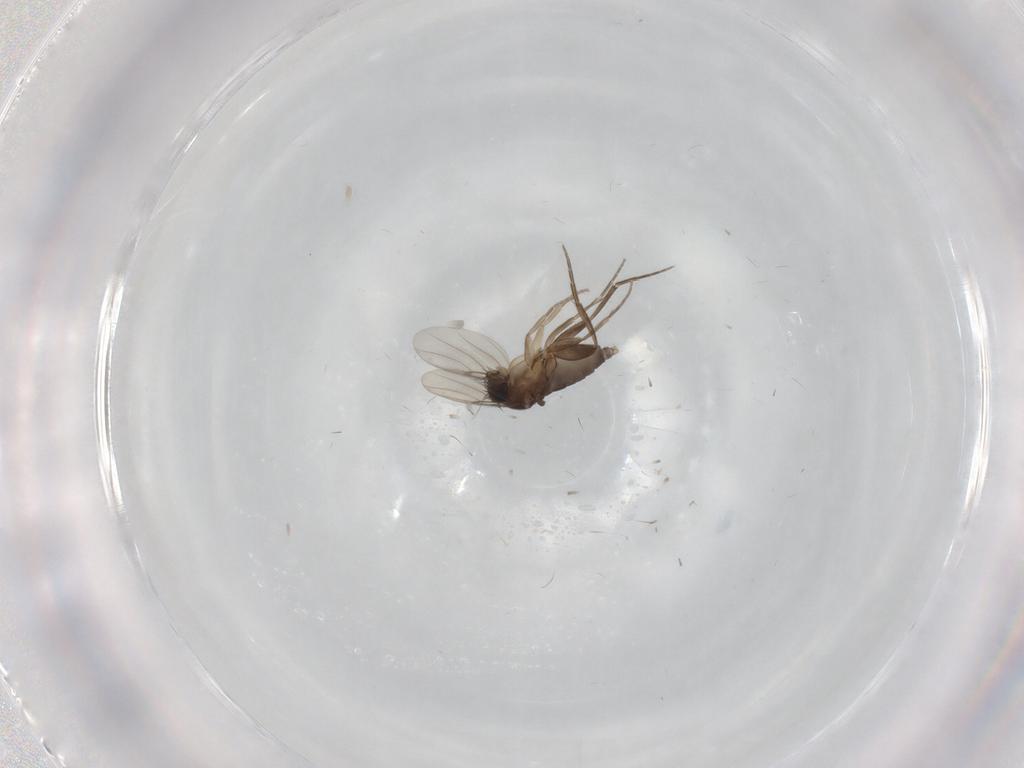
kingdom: Animalia
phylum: Arthropoda
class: Insecta
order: Diptera
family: Phoridae
